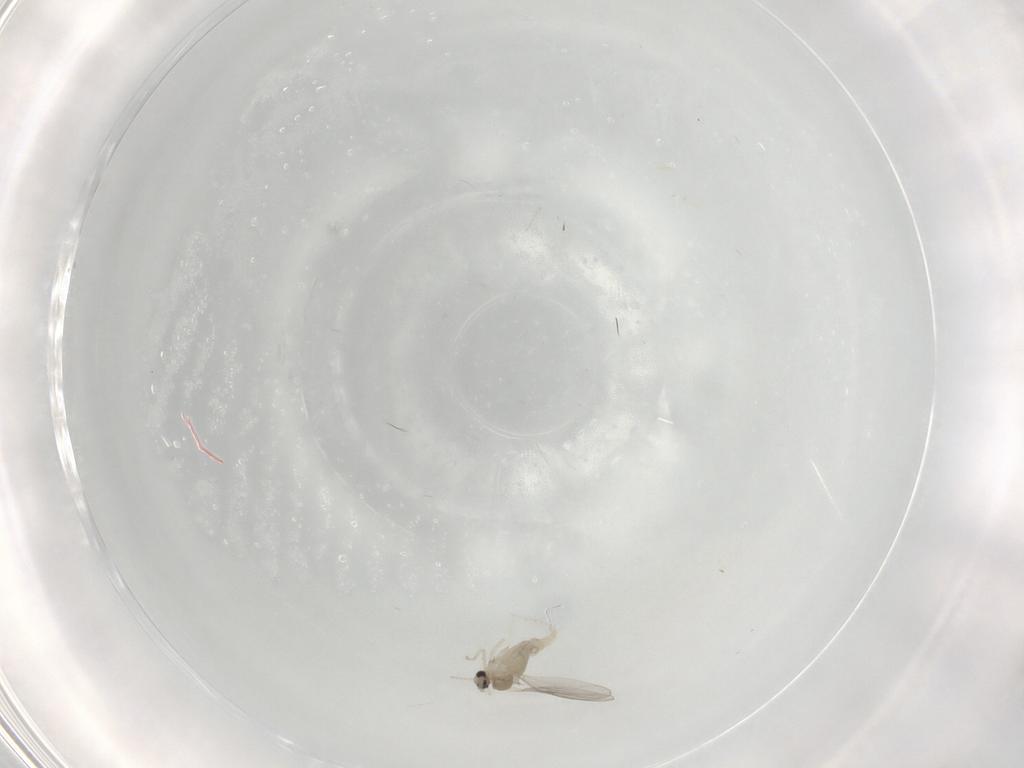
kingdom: Animalia
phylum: Arthropoda
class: Insecta
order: Diptera
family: Cecidomyiidae
